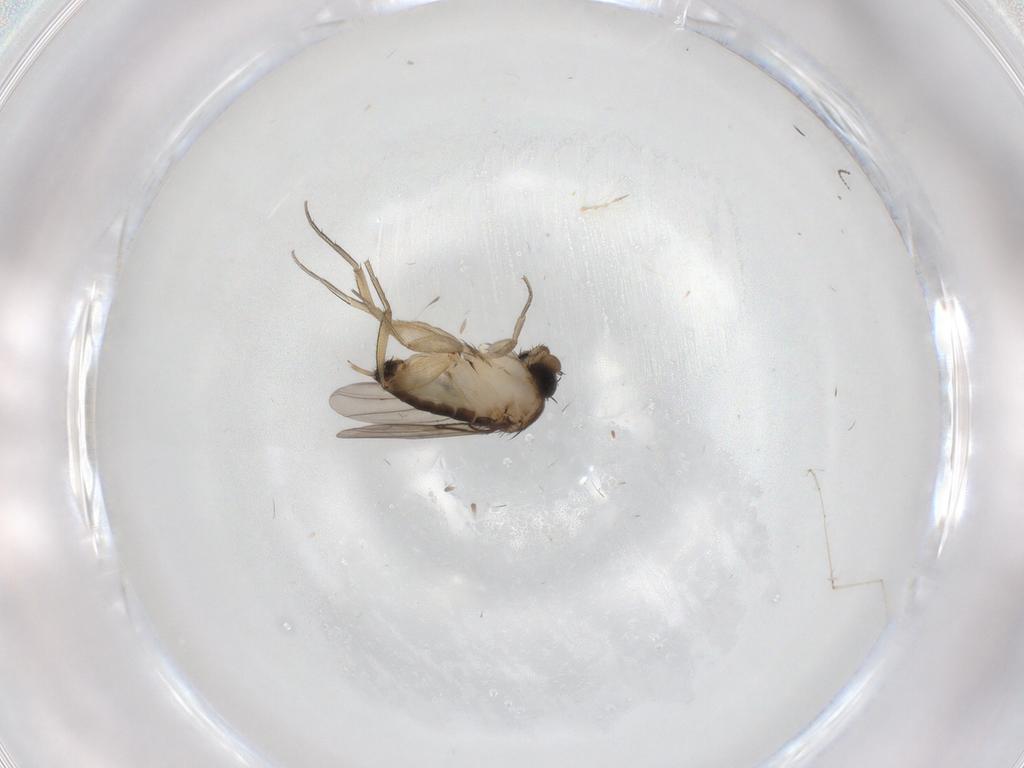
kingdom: Animalia
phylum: Arthropoda
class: Insecta
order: Diptera
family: Phoridae
